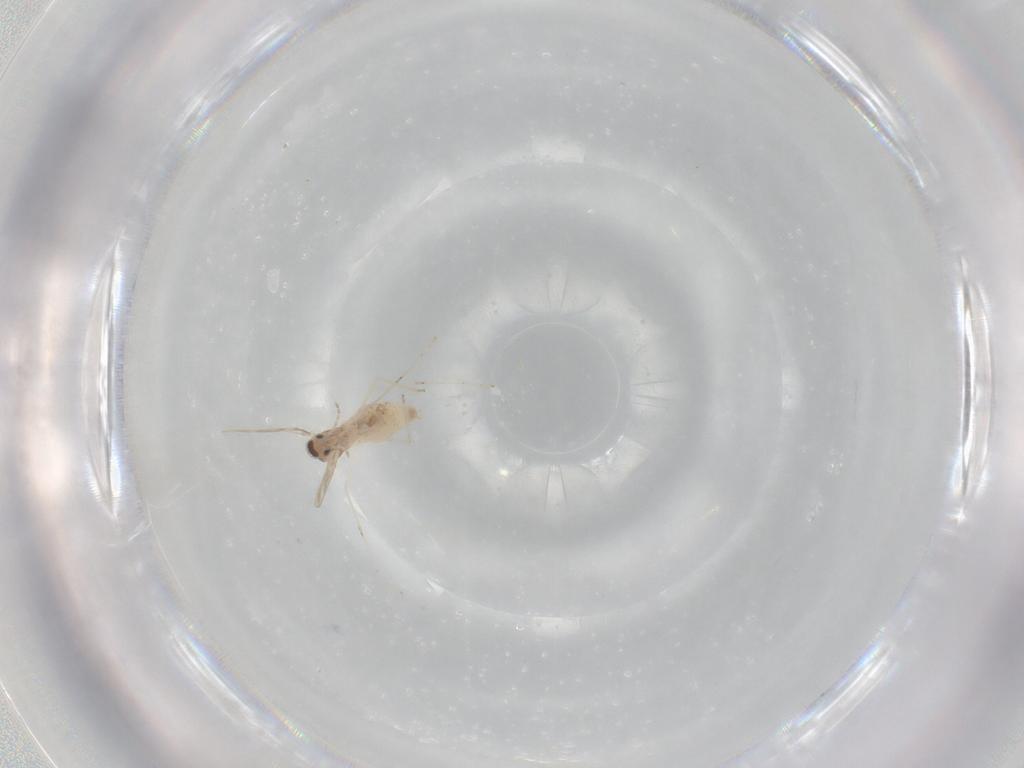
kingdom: Animalia
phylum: Arthropoda
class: Insecta
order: Diptera
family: Cecidomyiidae
